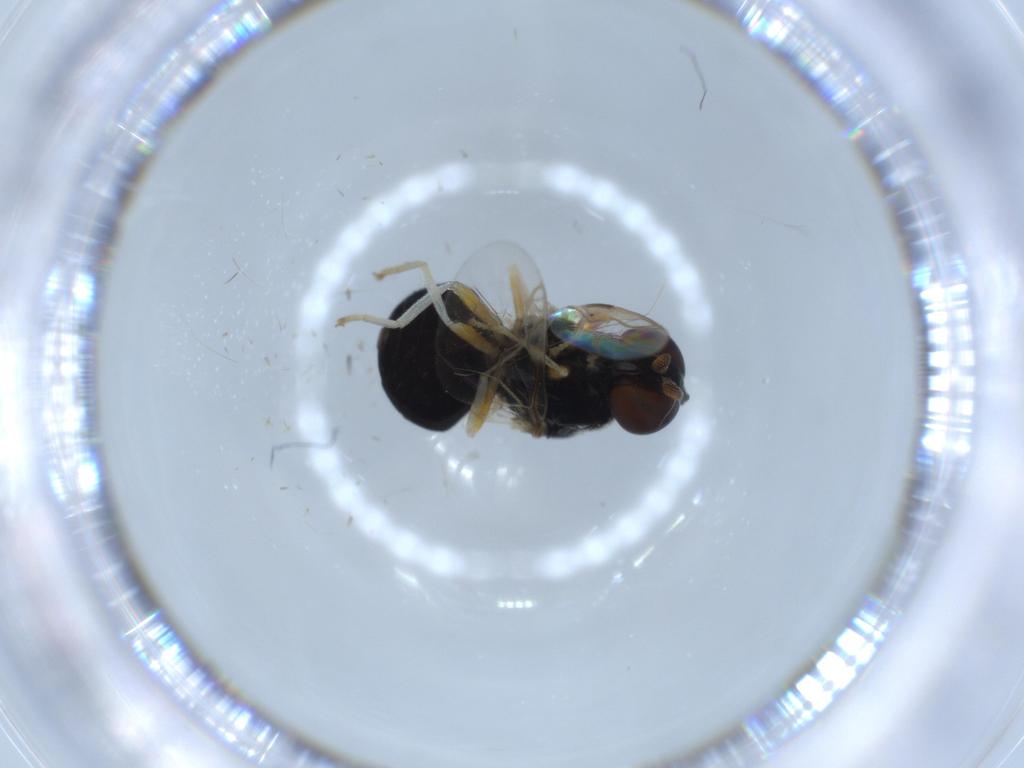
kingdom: Animalia
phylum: Arthropoda
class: Insecta
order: Diptera
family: Stratiomyidae
